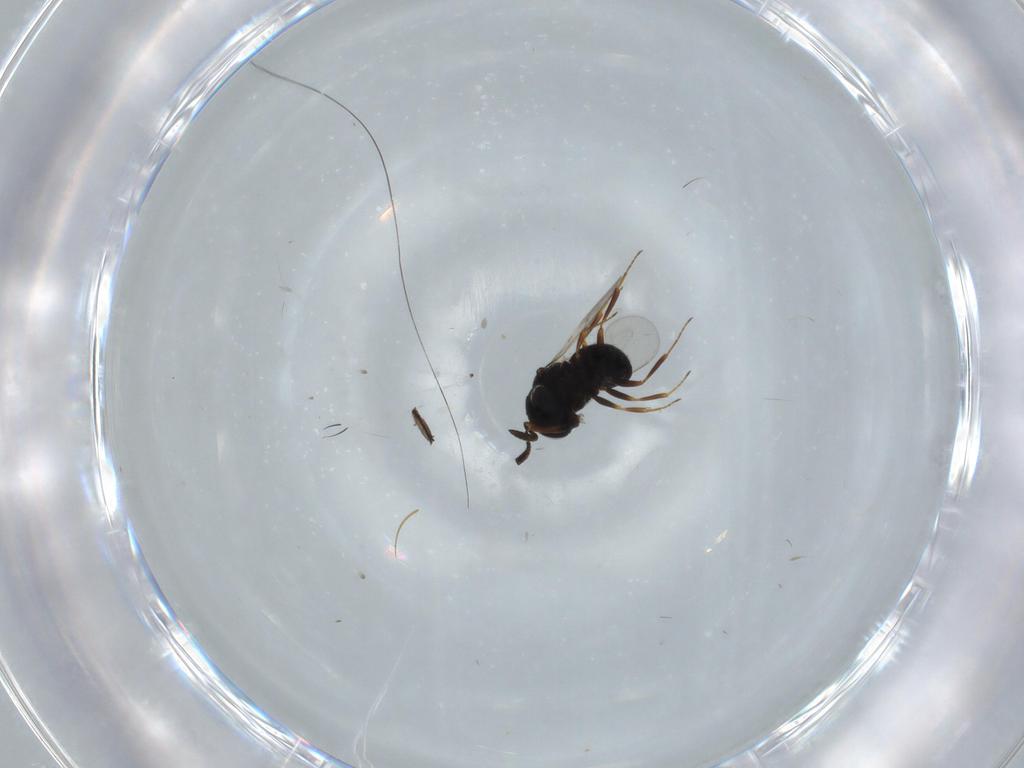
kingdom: Animalia
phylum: Arthropoda
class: Insecta
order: Hymenoptera
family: Scelionidae
